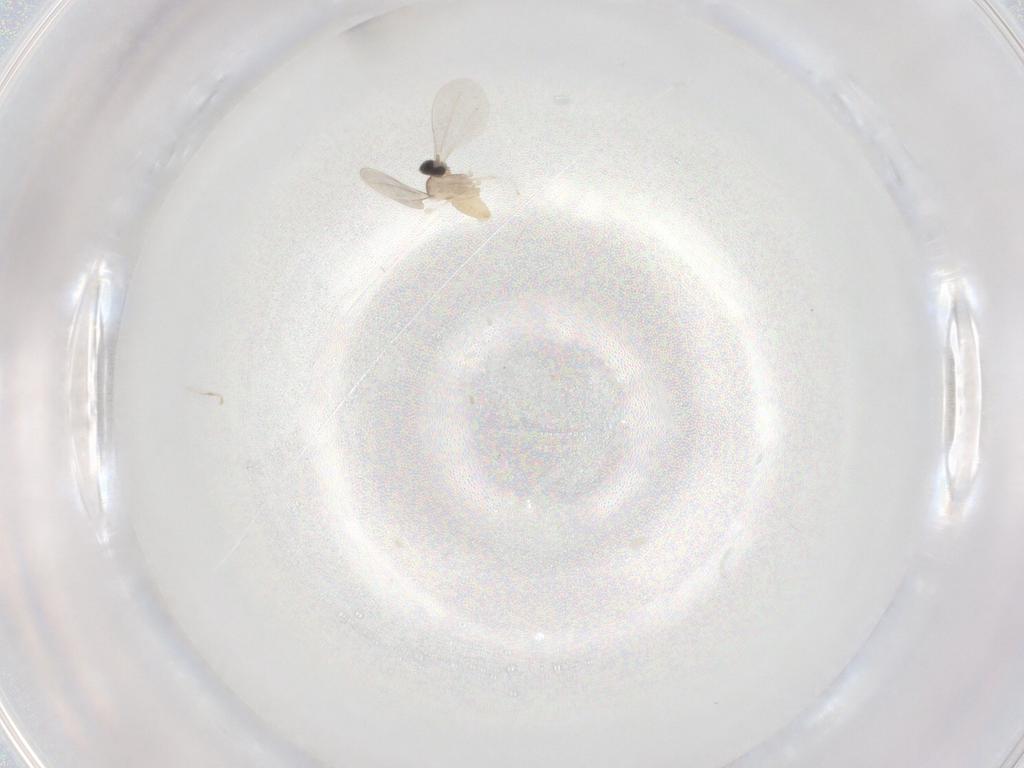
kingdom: Animalia
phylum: Arthropoda
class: Insecta
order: Diptera
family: Cecidomyiidae
